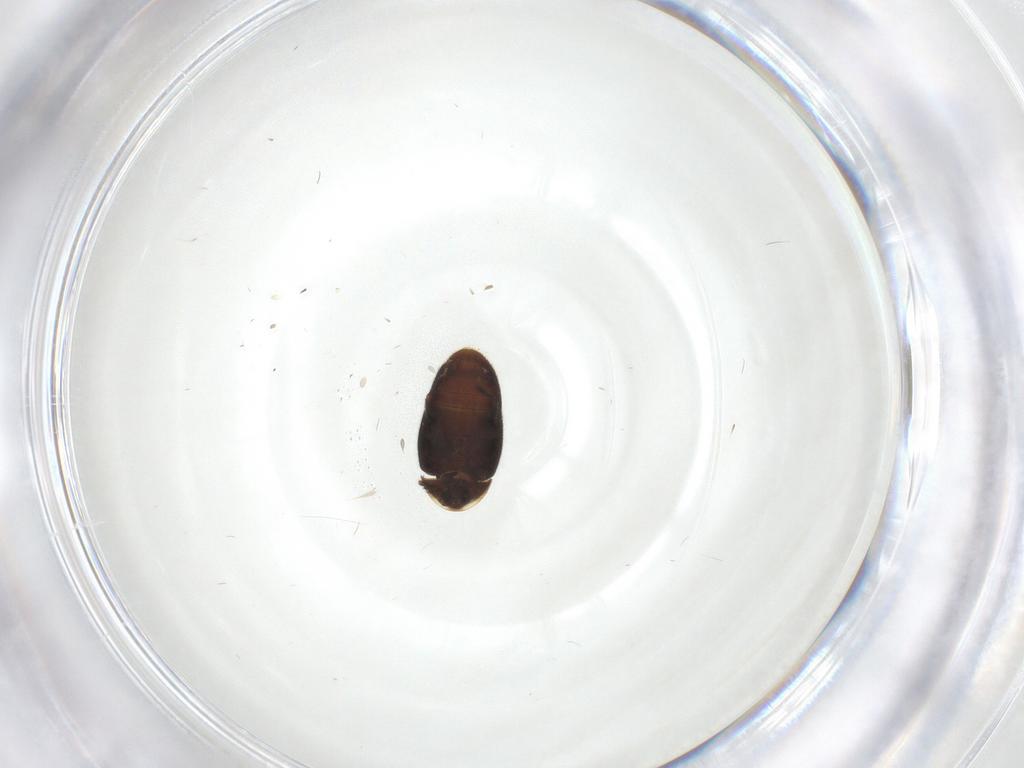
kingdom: Animalia
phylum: Arthropoda
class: Insecta
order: Coleoptera
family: Corylophidae
